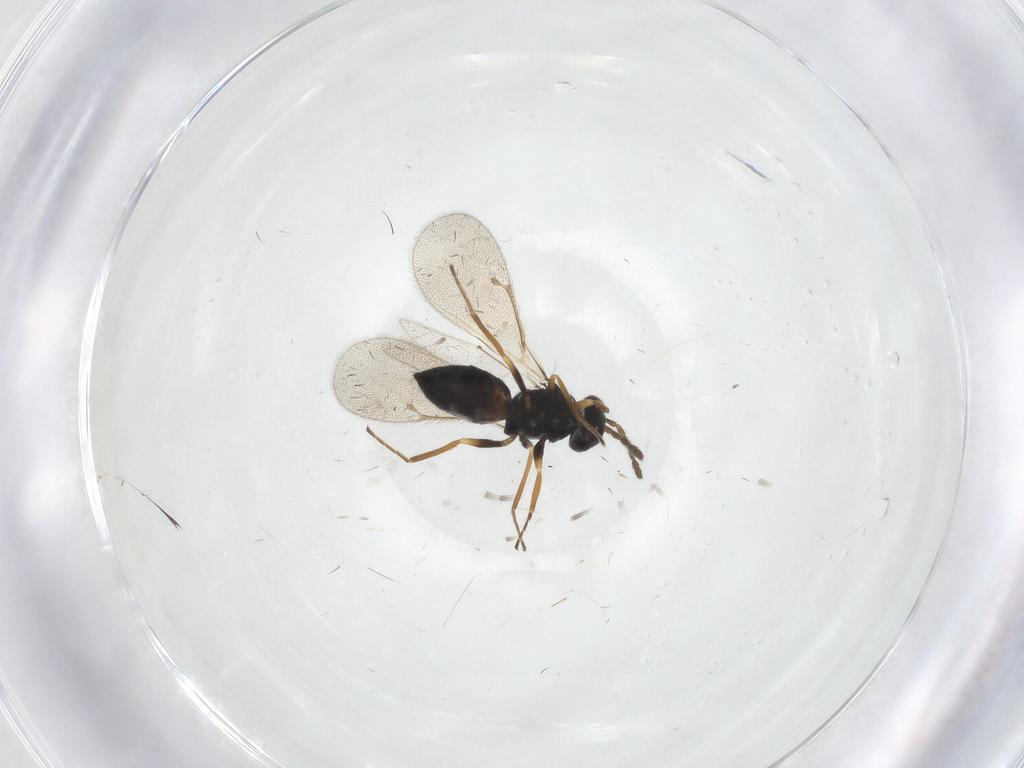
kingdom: Animalia
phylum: Arthropoda
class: Insecta
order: Hymenoptera
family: Eulophidae
